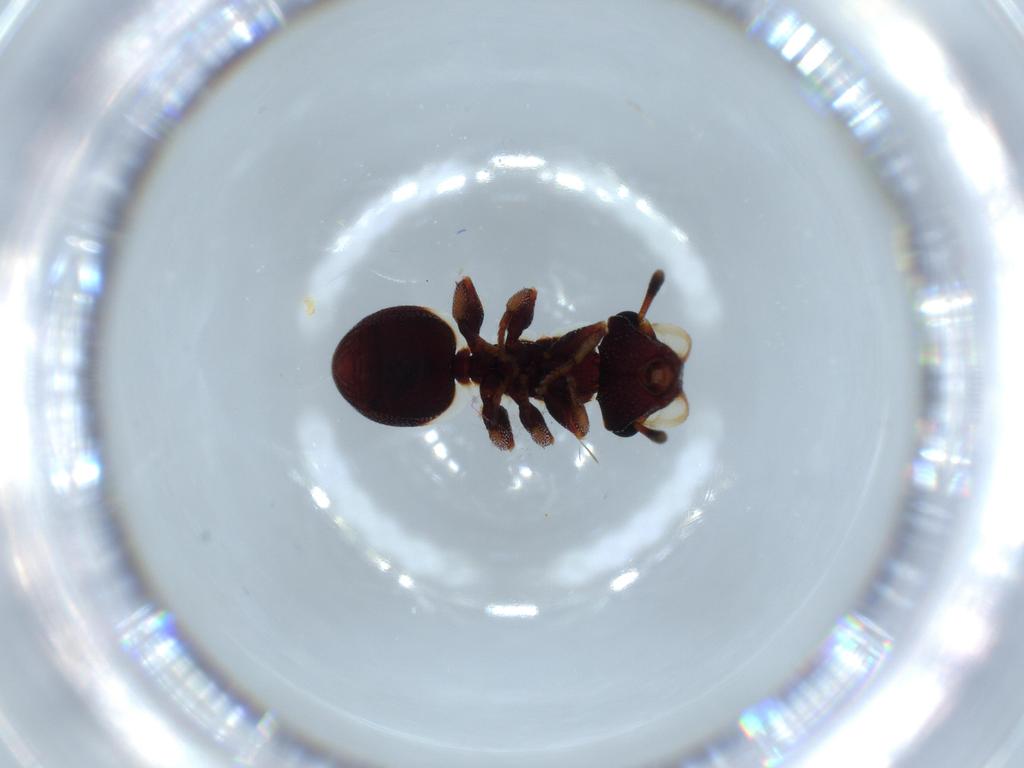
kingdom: Animalia
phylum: Arthropoda
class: Insecta
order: Hymenoptera
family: Formicidae
